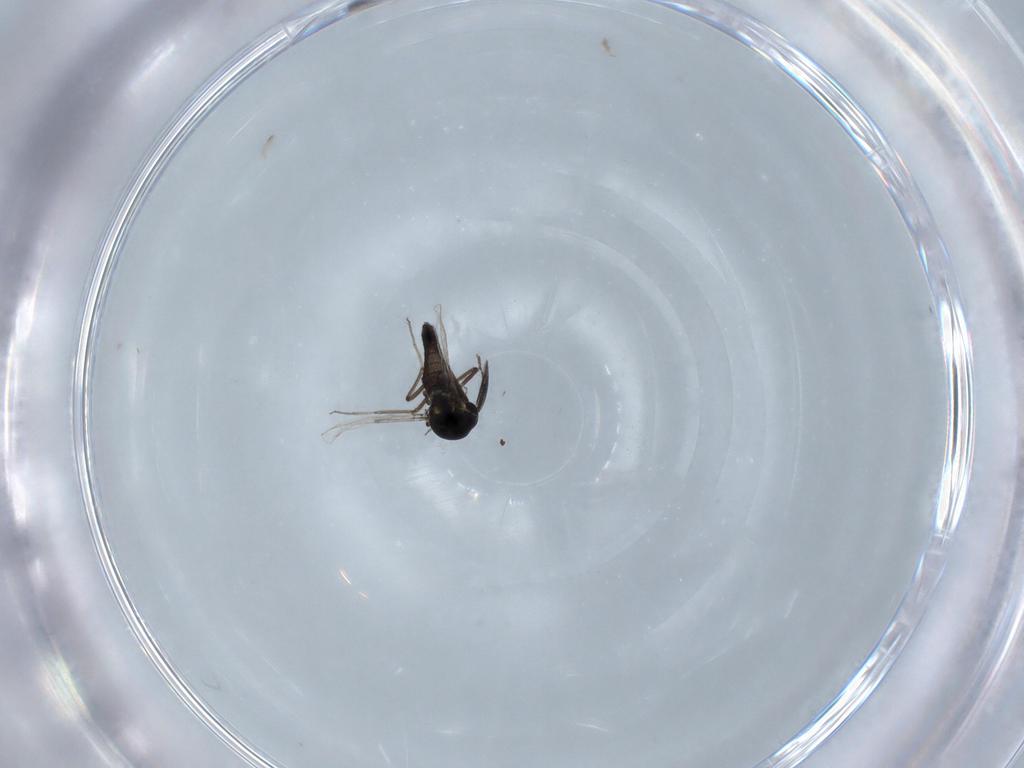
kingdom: Animalia
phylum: Arthropoda
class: Insecta
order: Diptera
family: Ceratopogonidae
